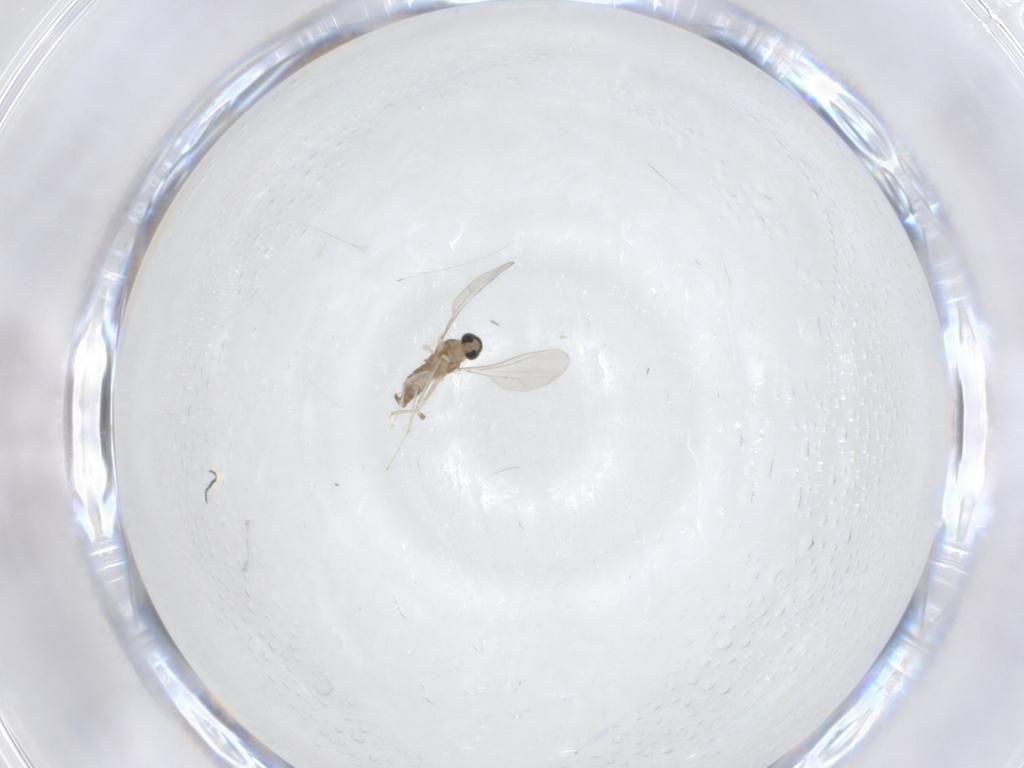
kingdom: Animalia
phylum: Arthropoda
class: Insecta
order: Diptera
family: Cecidomyiidae
